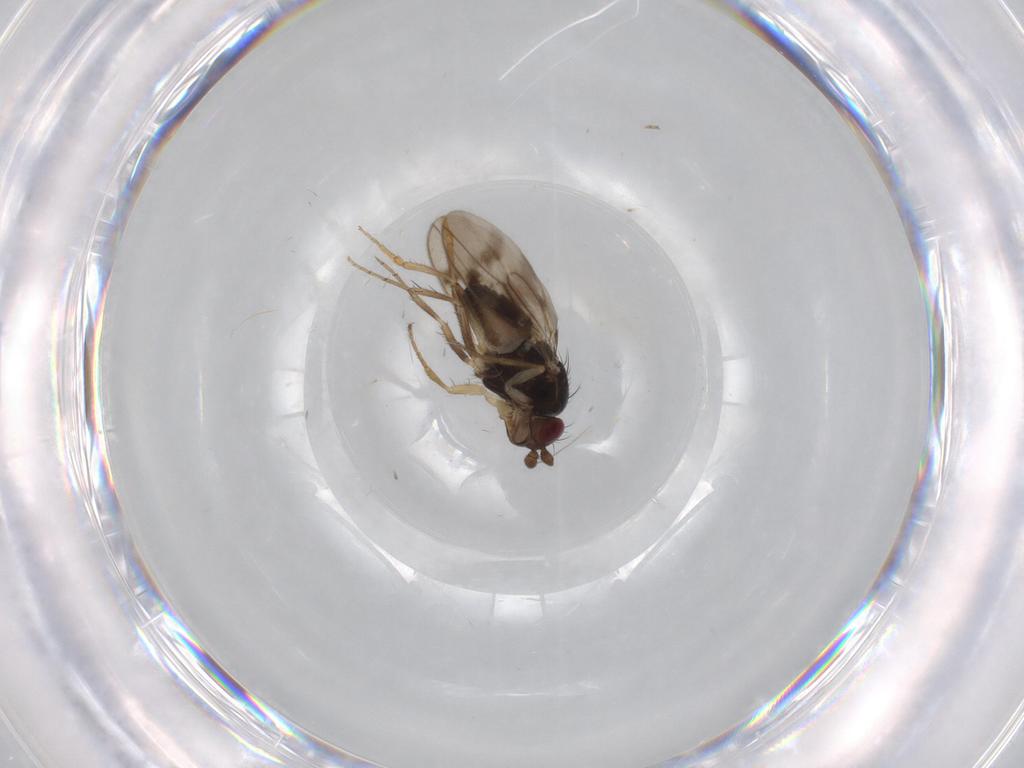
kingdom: Animalia
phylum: Arthropoda
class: Insecta
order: Diptera
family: Sphaeroceridae
